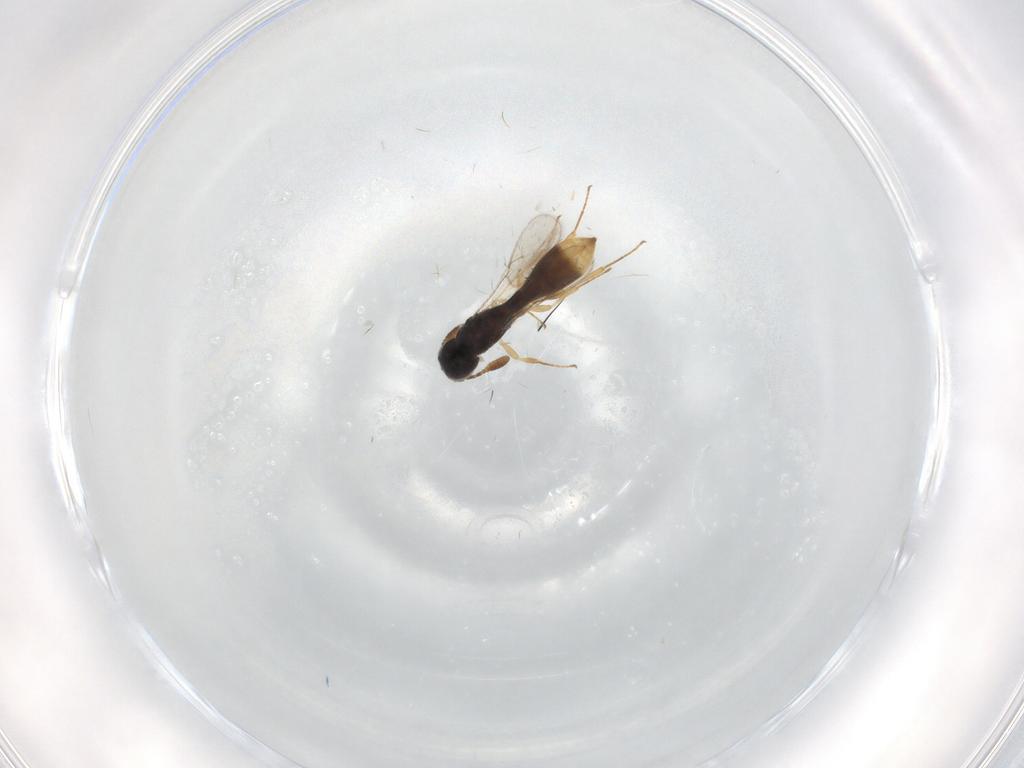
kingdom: Animalia
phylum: Arthropoda
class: Insecta
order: Hymenoptera
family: Scelionidae
